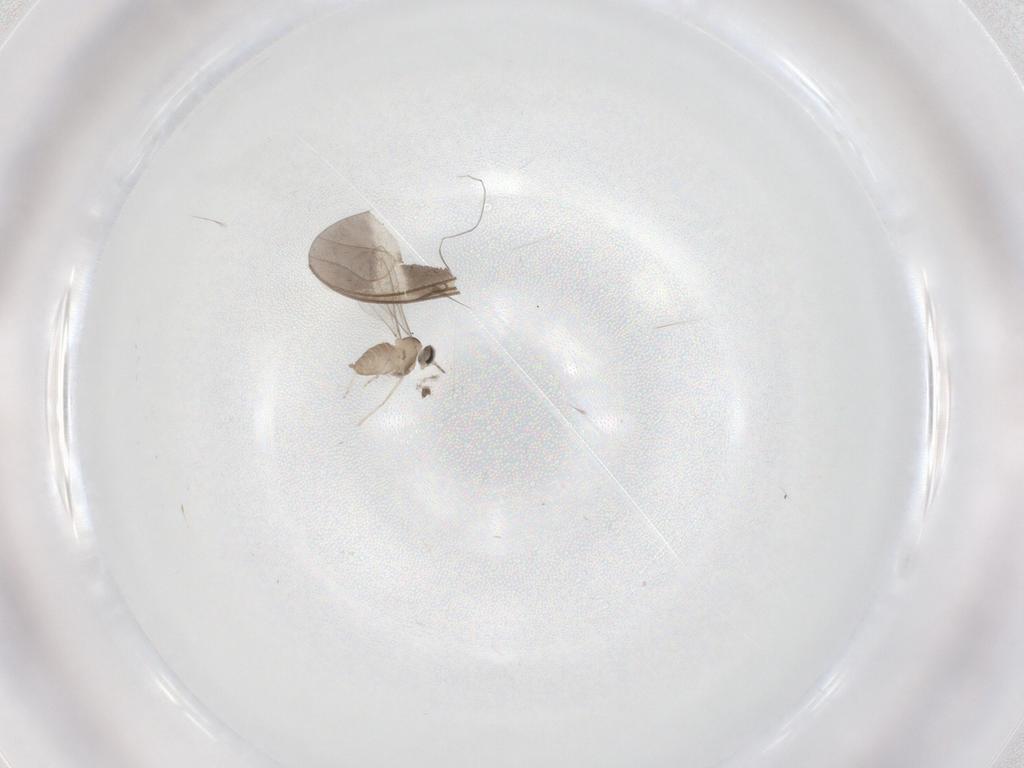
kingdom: Animalia
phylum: Arthropoda
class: Insecta
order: Diptera
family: Cecidomyiidae
